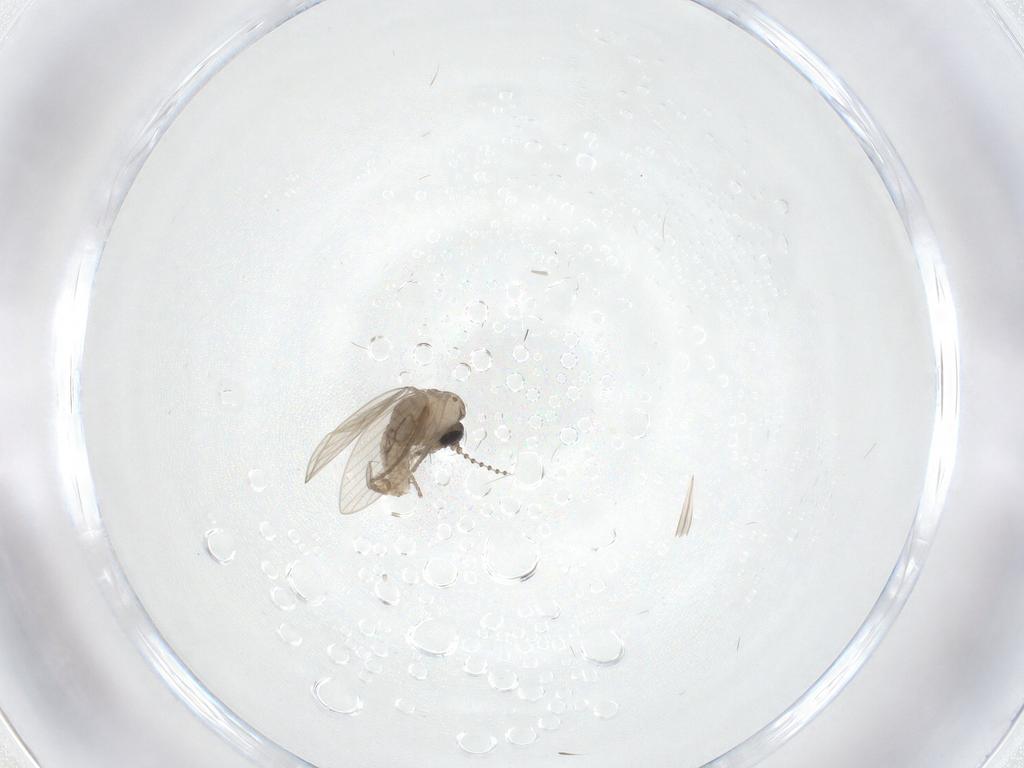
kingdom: Animalia
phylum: Arthropoda
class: Insecta
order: Diptera
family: Psychodidae
